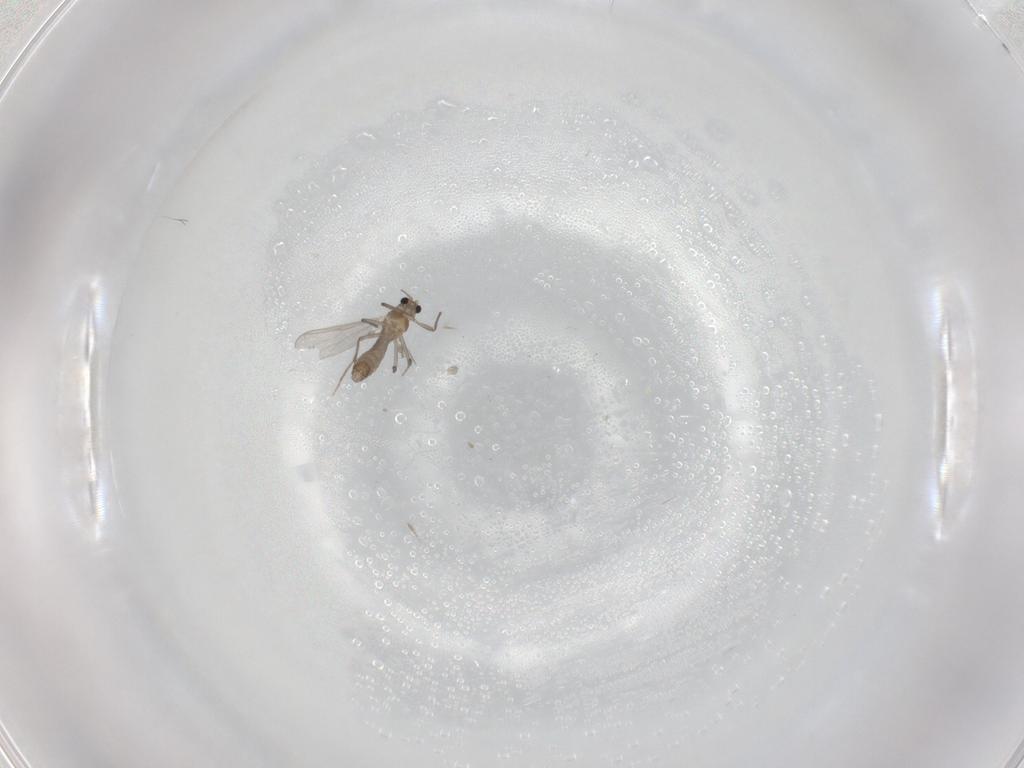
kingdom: Animalia
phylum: Arthropoda
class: Insecta
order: Diptera
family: Chironomidae
